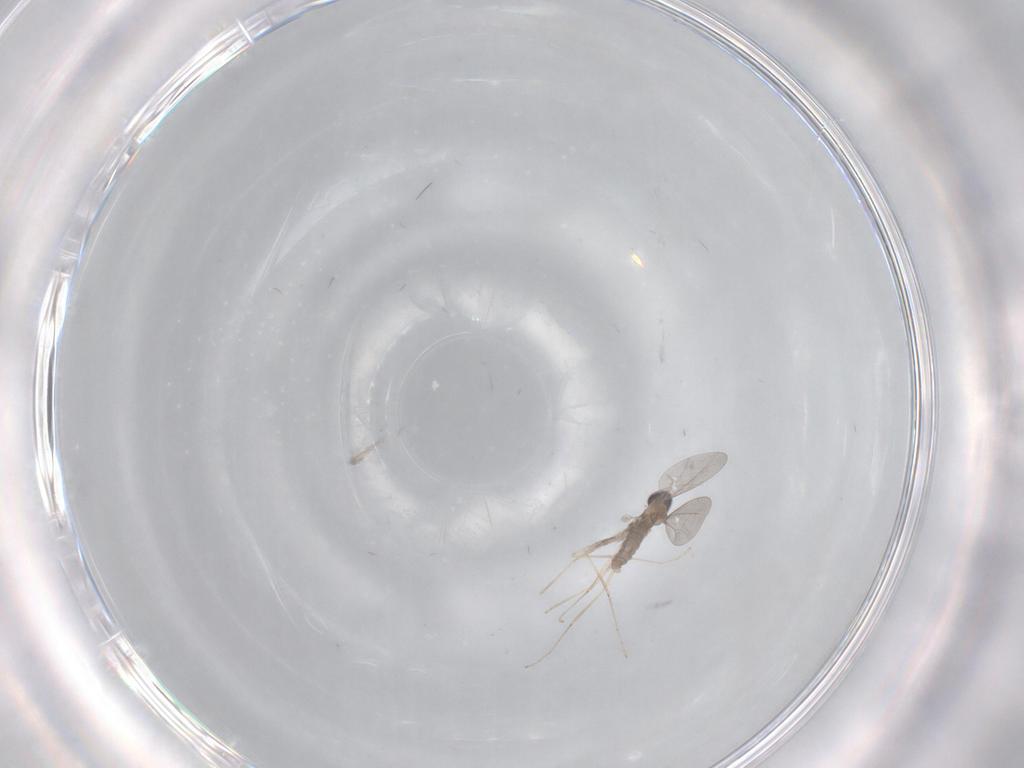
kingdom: Animalia
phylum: Arthropoda
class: Insecta
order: Diptera
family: Cecidomyiidae
